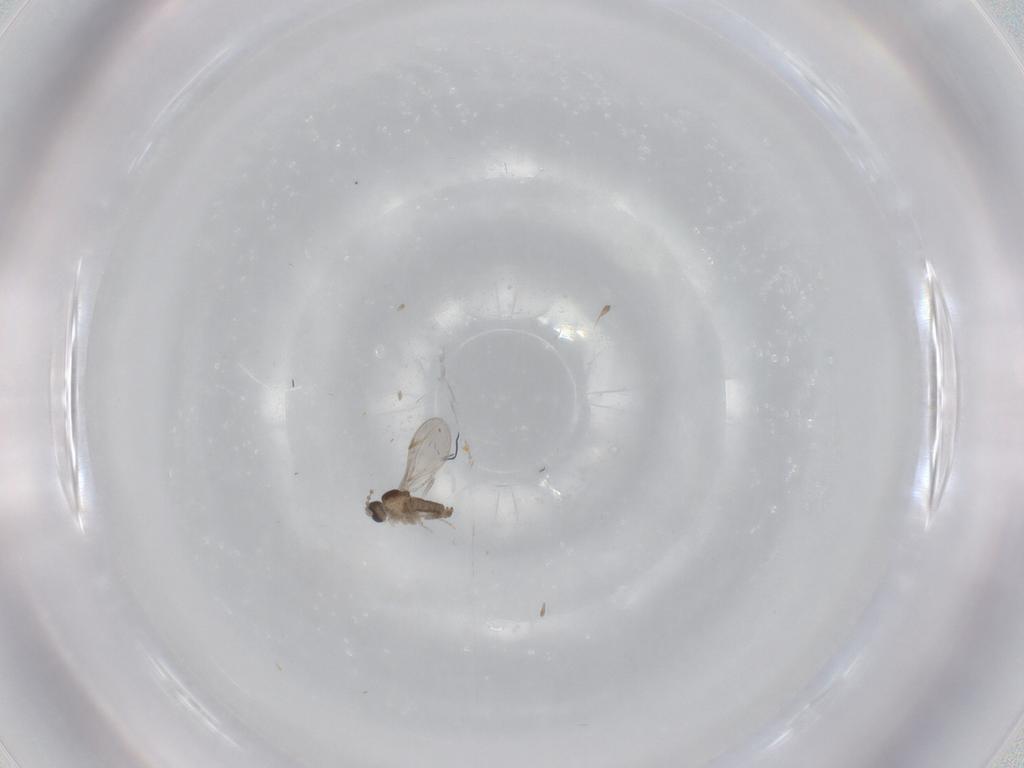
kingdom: Animalia
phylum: Arthropoda
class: Insecta
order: Diptera
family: Cecidomyiidae
